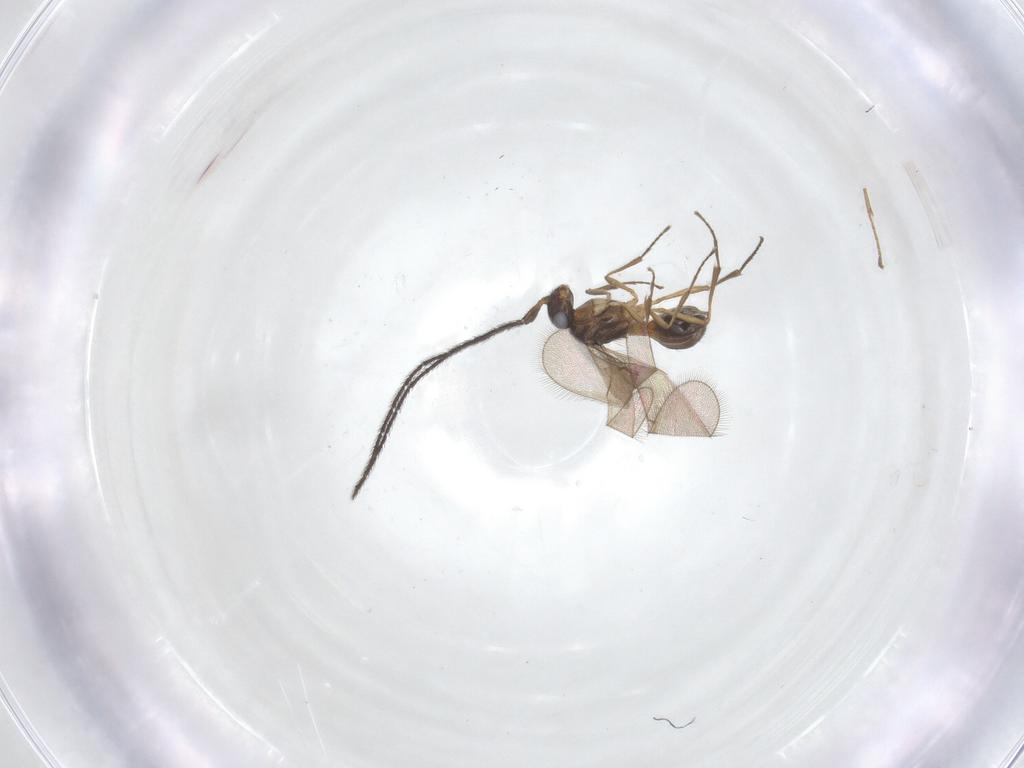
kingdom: Animalia
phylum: Arthropoda
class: Insecta
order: Hymenoptera
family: Scelionidae
